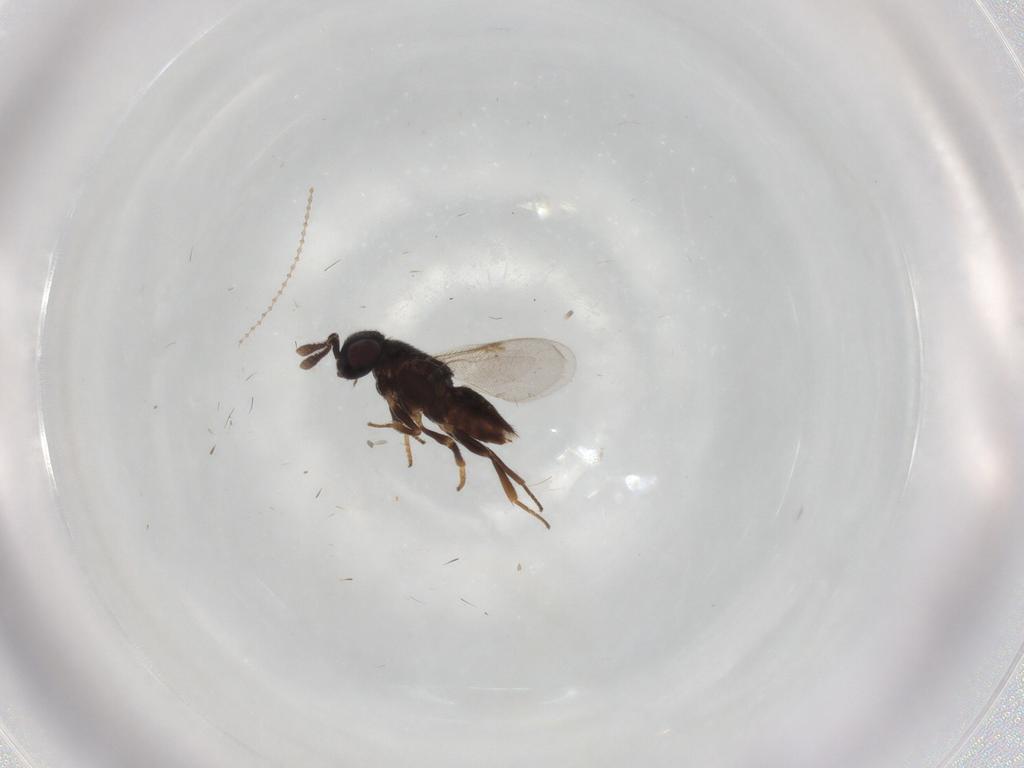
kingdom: Animalia
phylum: Arthropoda
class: Insecta
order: Hymenoptera
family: Encyrtidae
